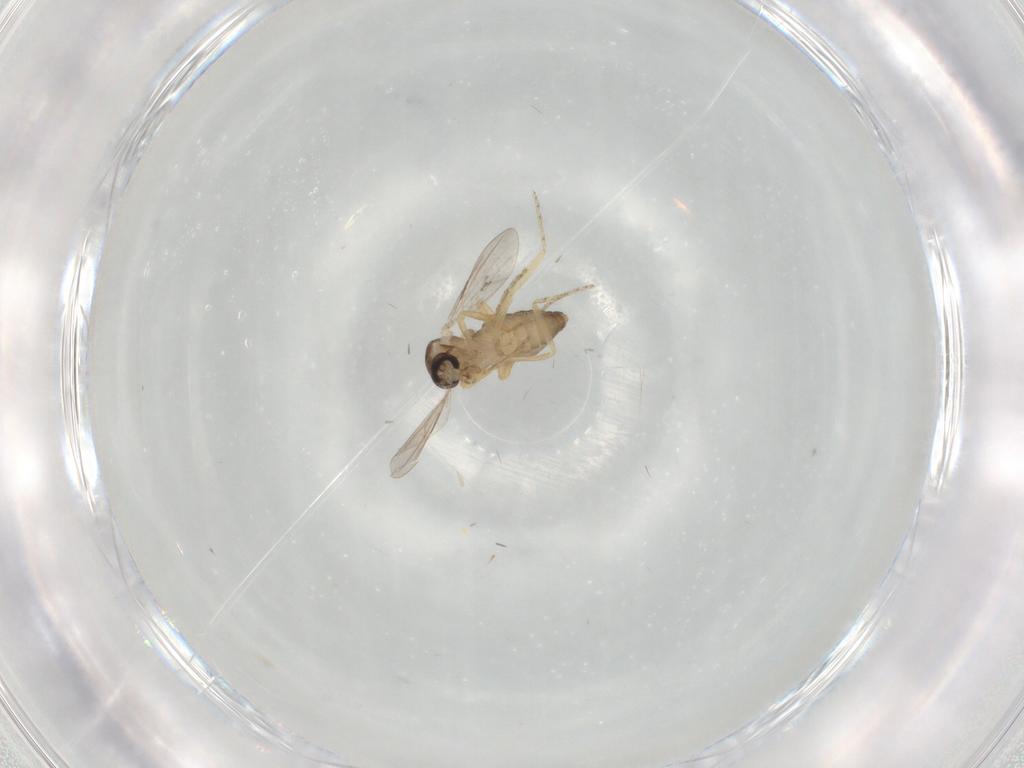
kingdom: Animalia
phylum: Arthropoda
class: Insecta
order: Diptera
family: Ceratopogonidae
